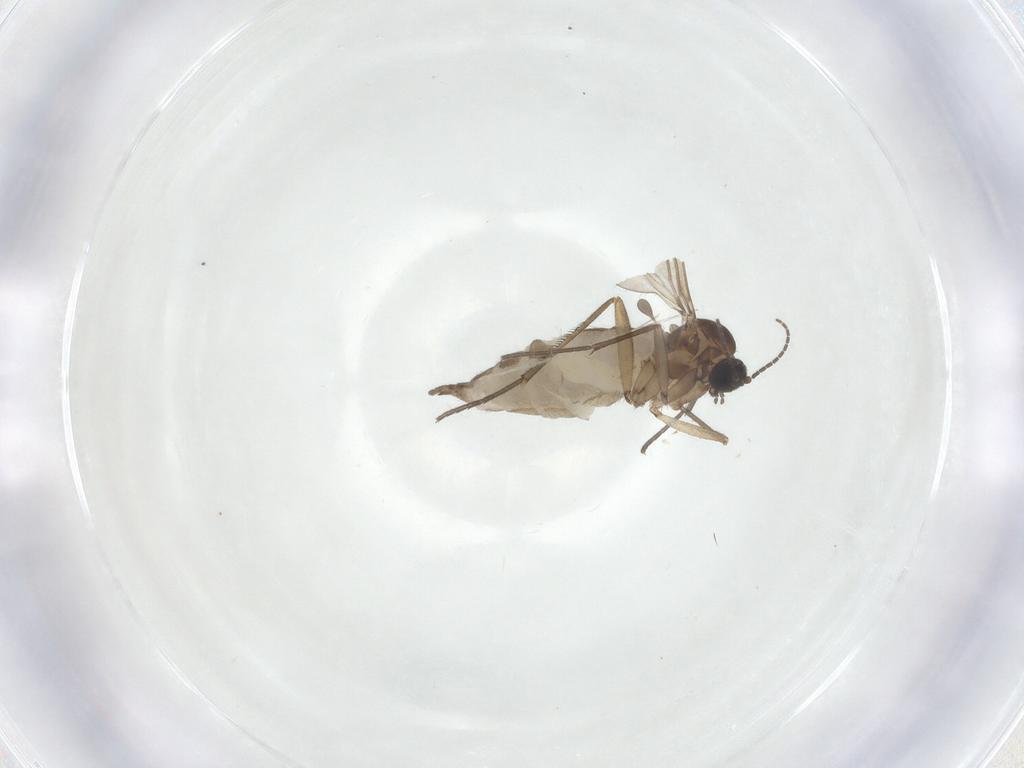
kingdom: Animalia
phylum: Arthropoda
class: Insecta
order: Diptera
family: Sciaridae
